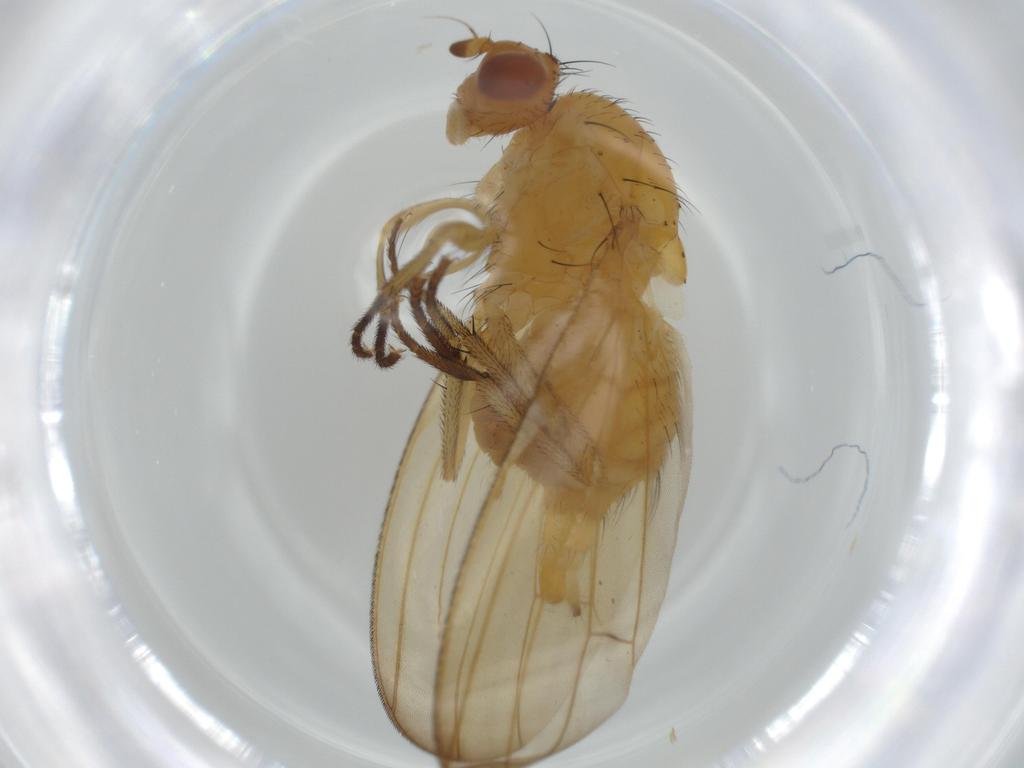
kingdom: Animalia
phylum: Arthropoda
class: Insecta
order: Diptera
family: Lauxaniidae
